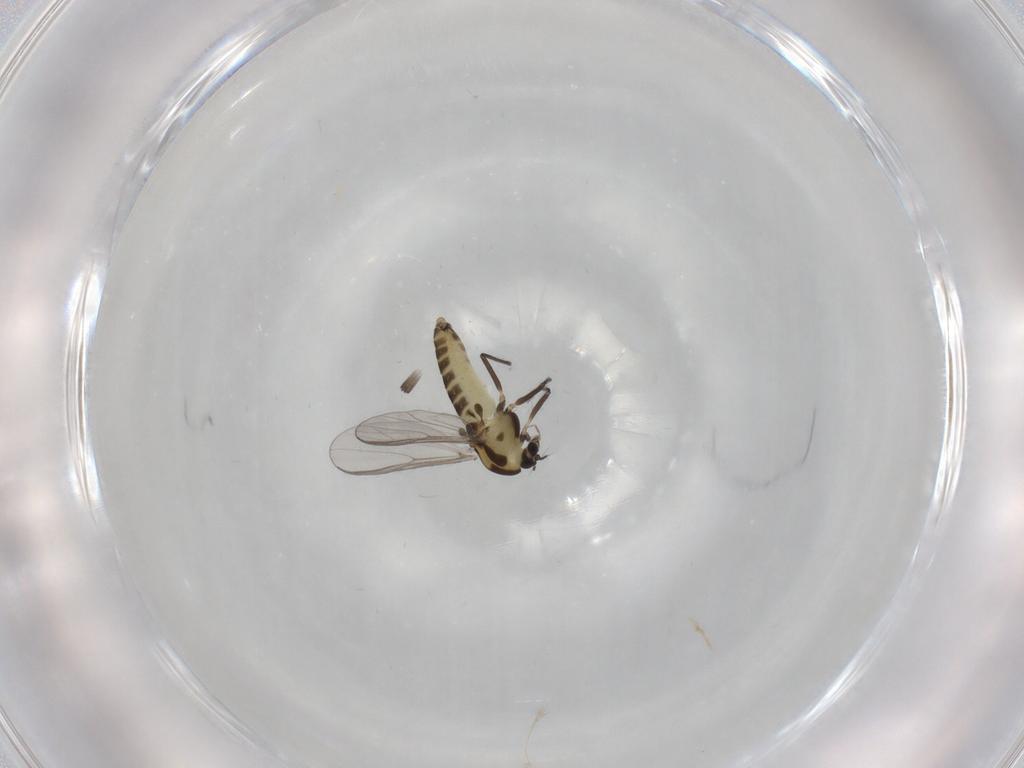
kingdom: Animalia
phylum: Arthropoda
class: Insecta
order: Diptera
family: Chironomidae
